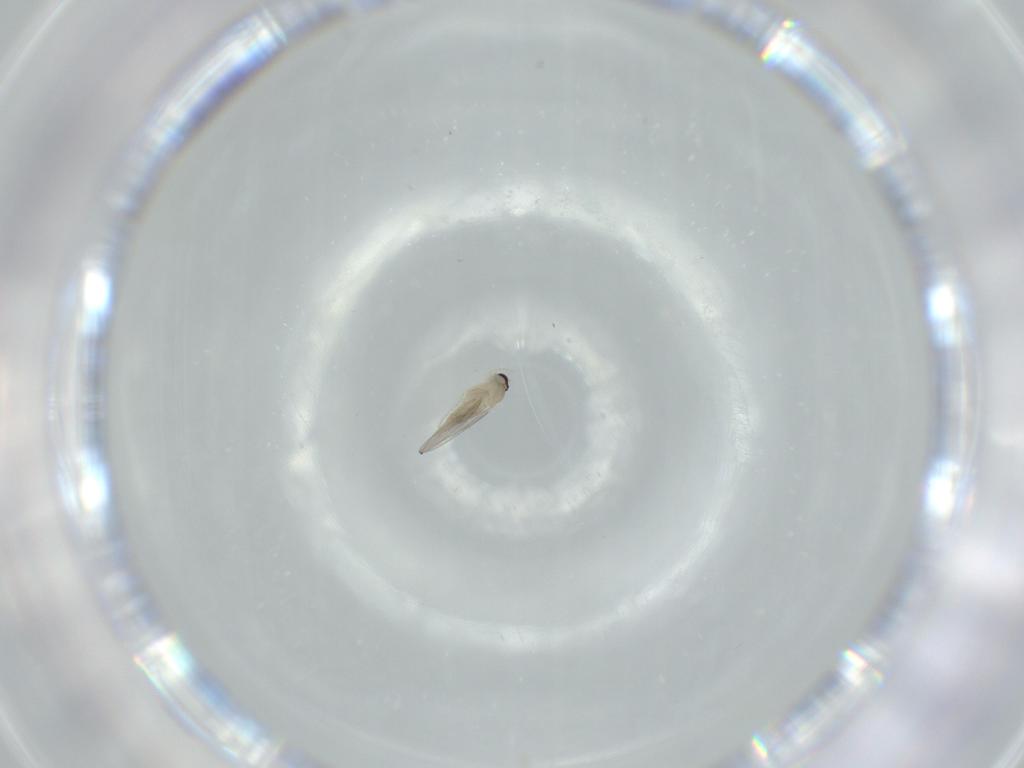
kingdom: Animalia
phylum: Arthropoda
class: Insecta
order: Diptera
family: Cecidomyiidae
